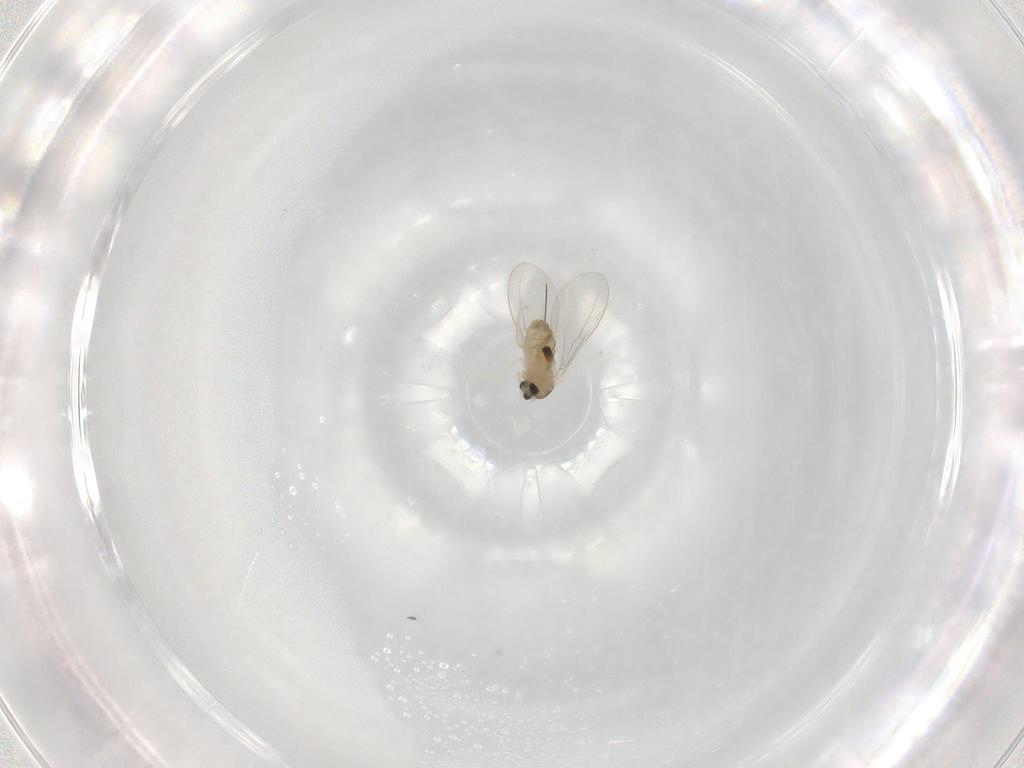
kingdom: Animalia
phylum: Arthropoda
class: Insecta
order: Diptera
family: Cecidomyiidae
